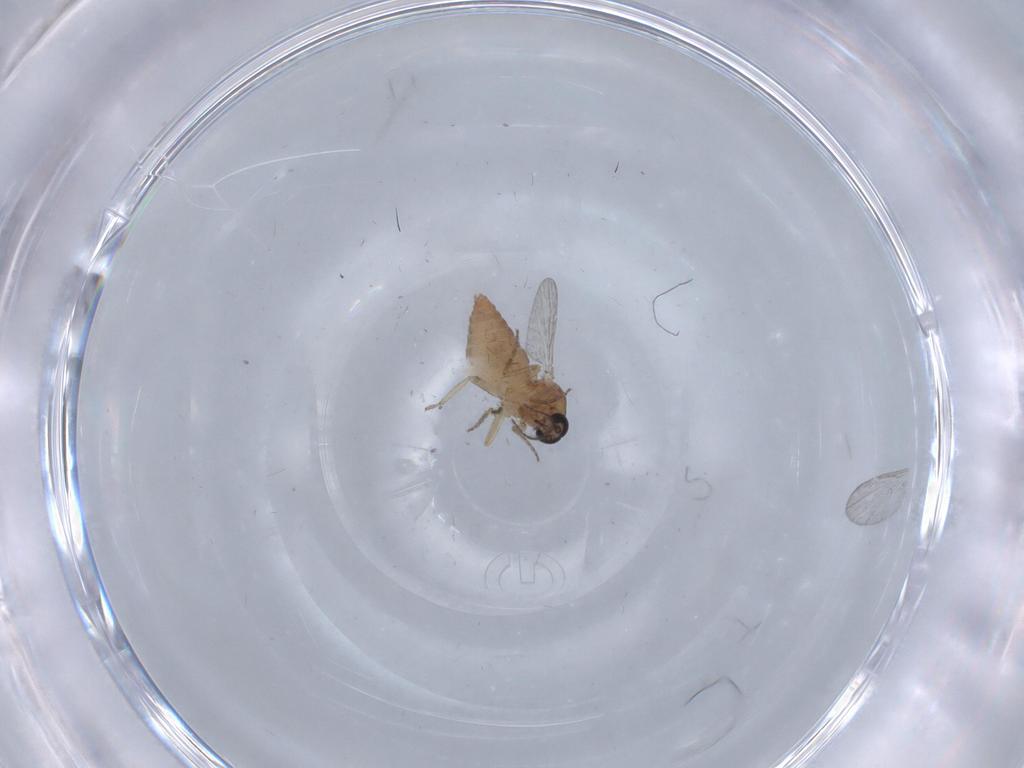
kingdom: Animalia
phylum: Arthropoda
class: Insecta
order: Diptera
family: Ceratopogonidae
